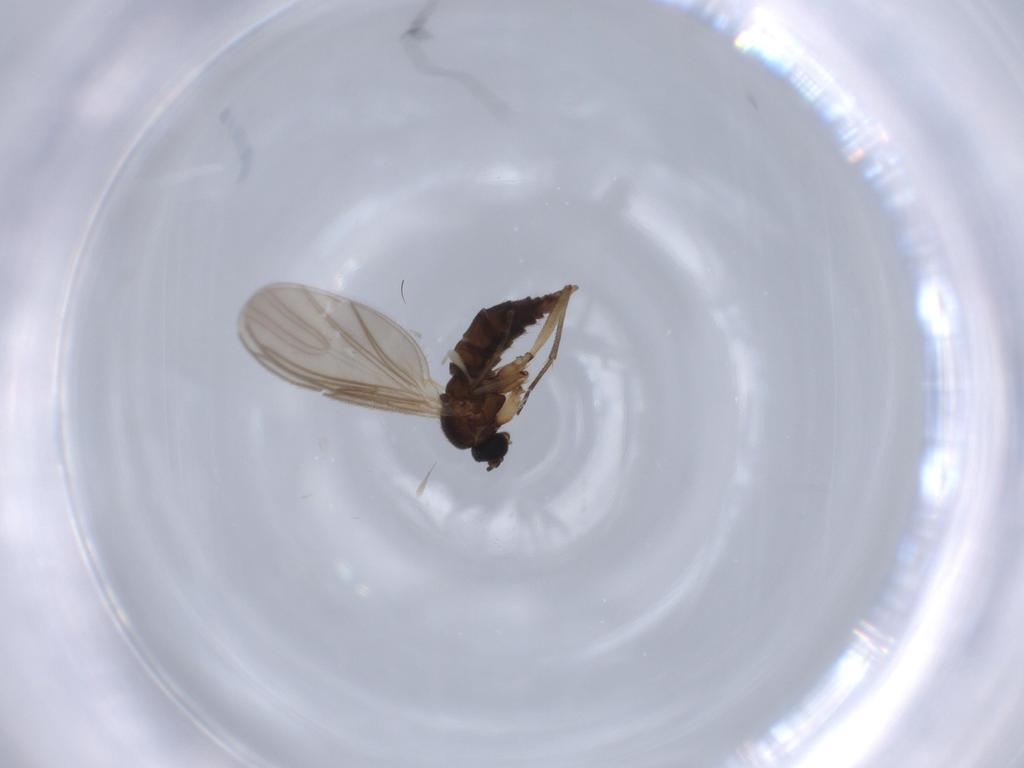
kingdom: Animalia
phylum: Arthropoda
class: Insecta
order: Diptera
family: Sciaridae
